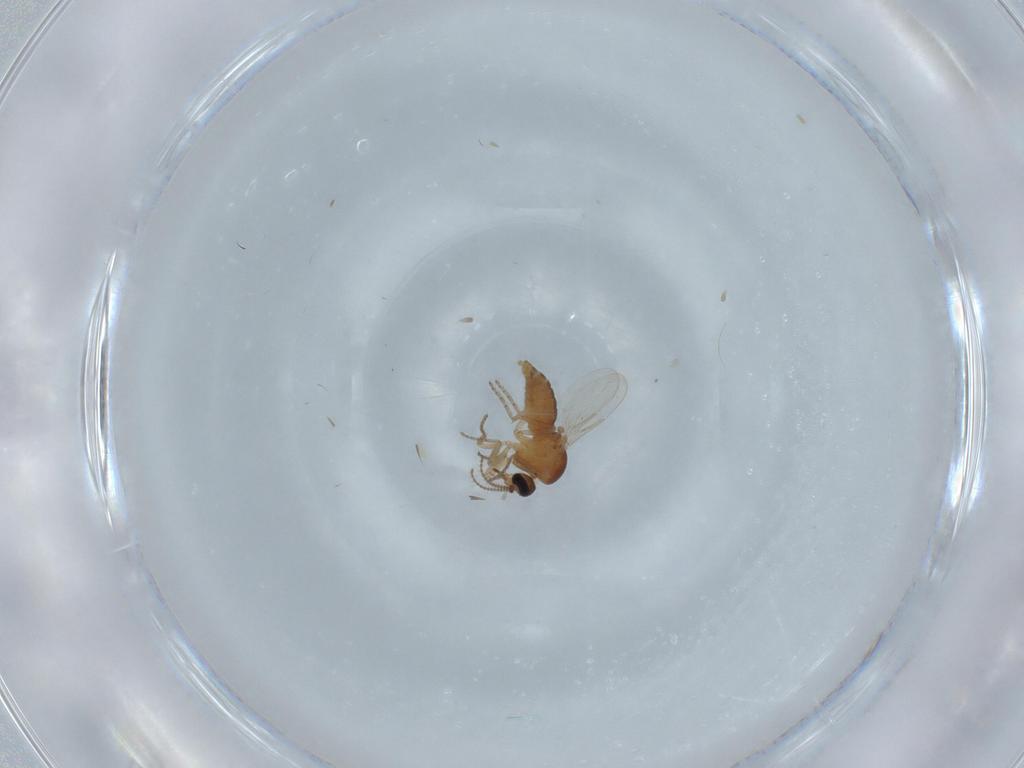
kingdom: Animalia
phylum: Arthropoda
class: Insecta
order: Diptera
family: Ceratopogonidae
